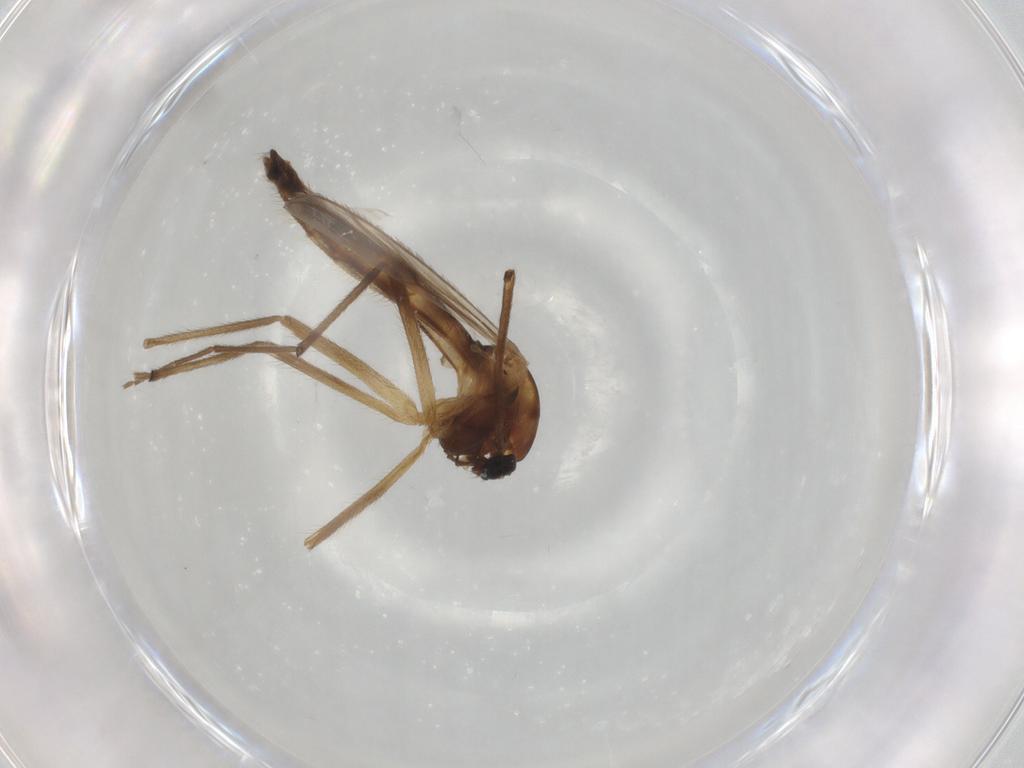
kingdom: Animalia
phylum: Arthropoda
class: Insecta
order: Diptera
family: Chironomidae
